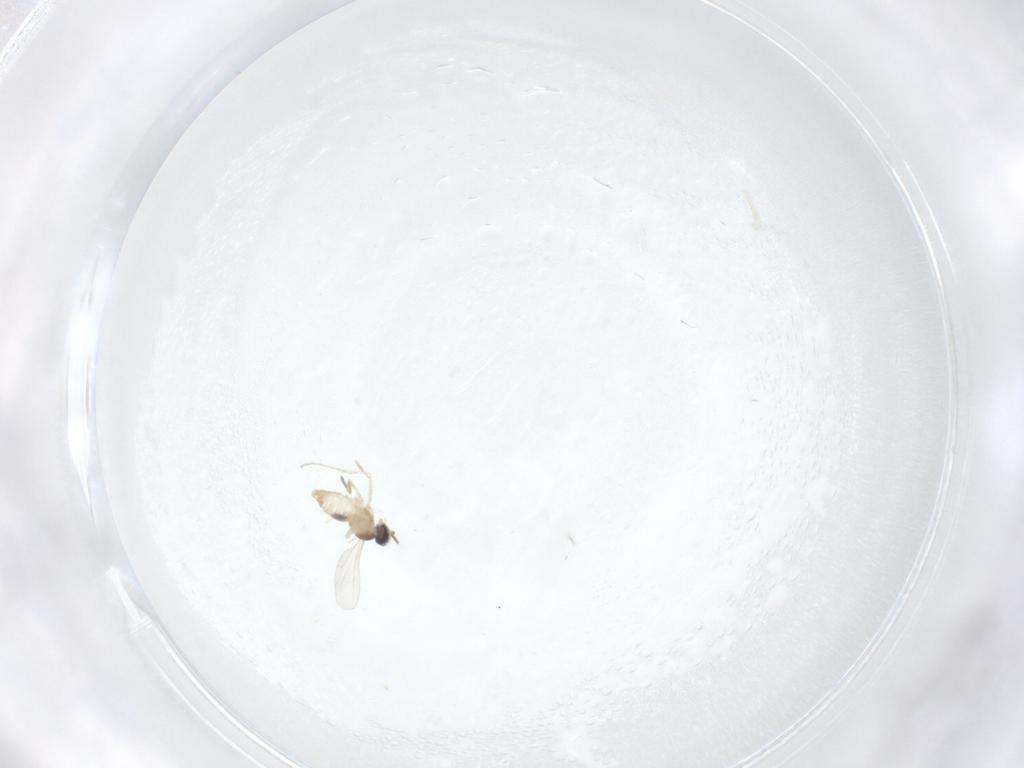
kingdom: Animalia
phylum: Arthropoda
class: Insecta
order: Diptera
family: Cecidomyiidae
